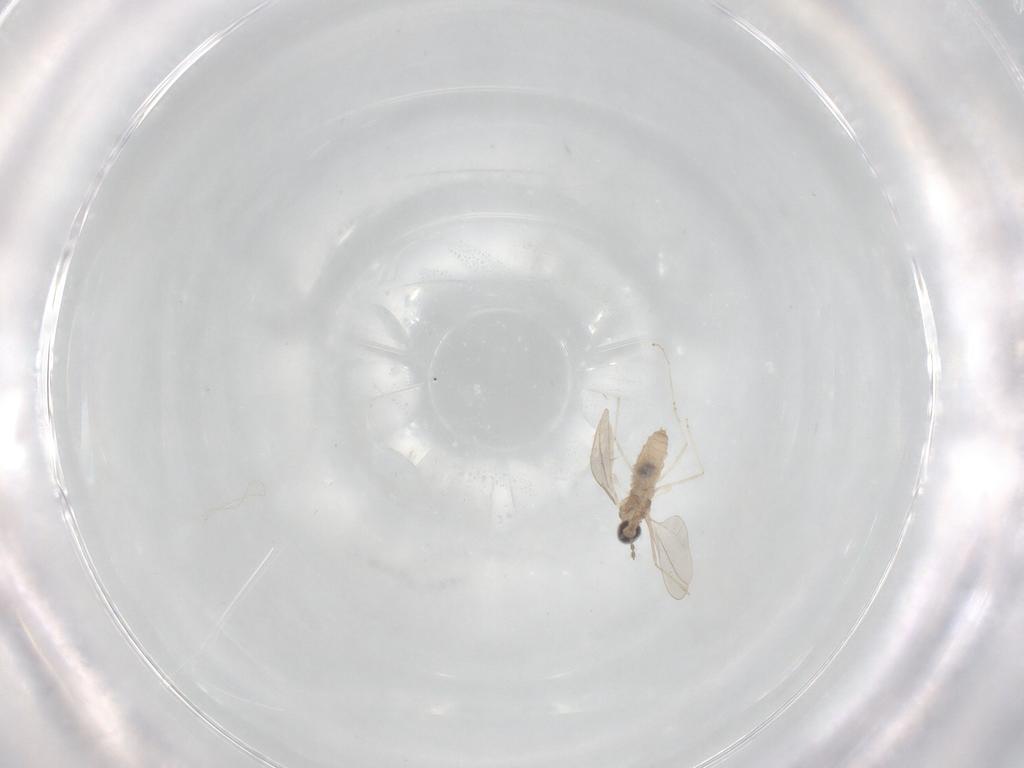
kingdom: Animalia
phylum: Arthropoda
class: Insecta
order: Diptera
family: Cecidomyiidae
